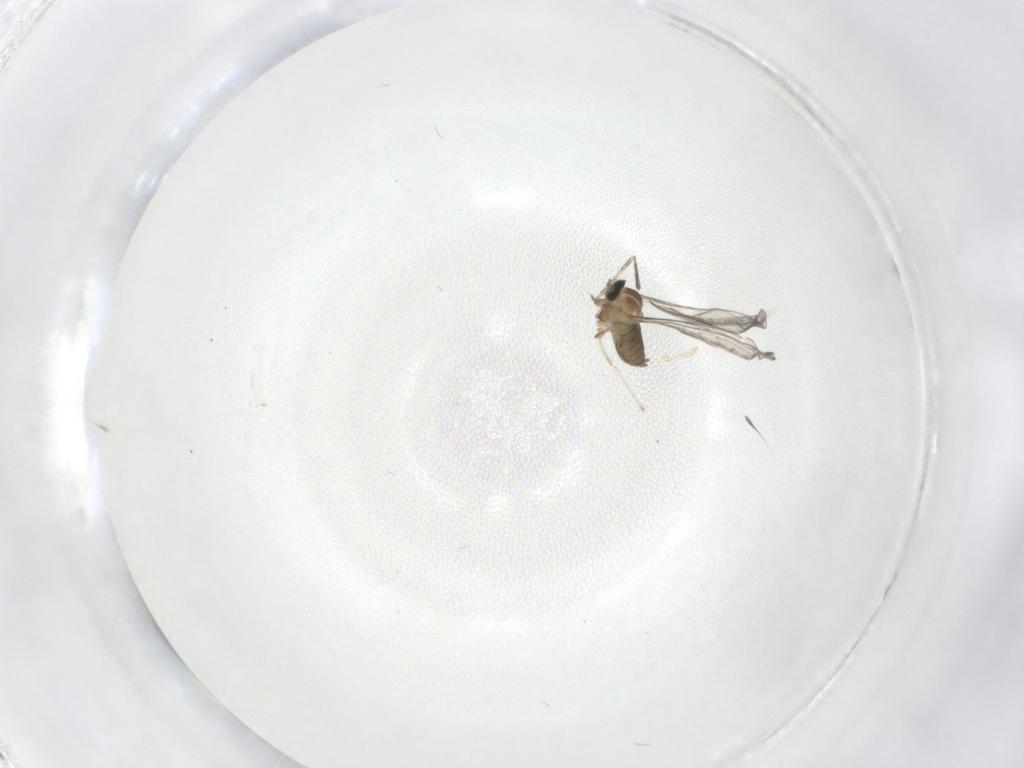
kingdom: Animalia
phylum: Arthropoda
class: Insecta
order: Diptera
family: Cecidomyiidae
